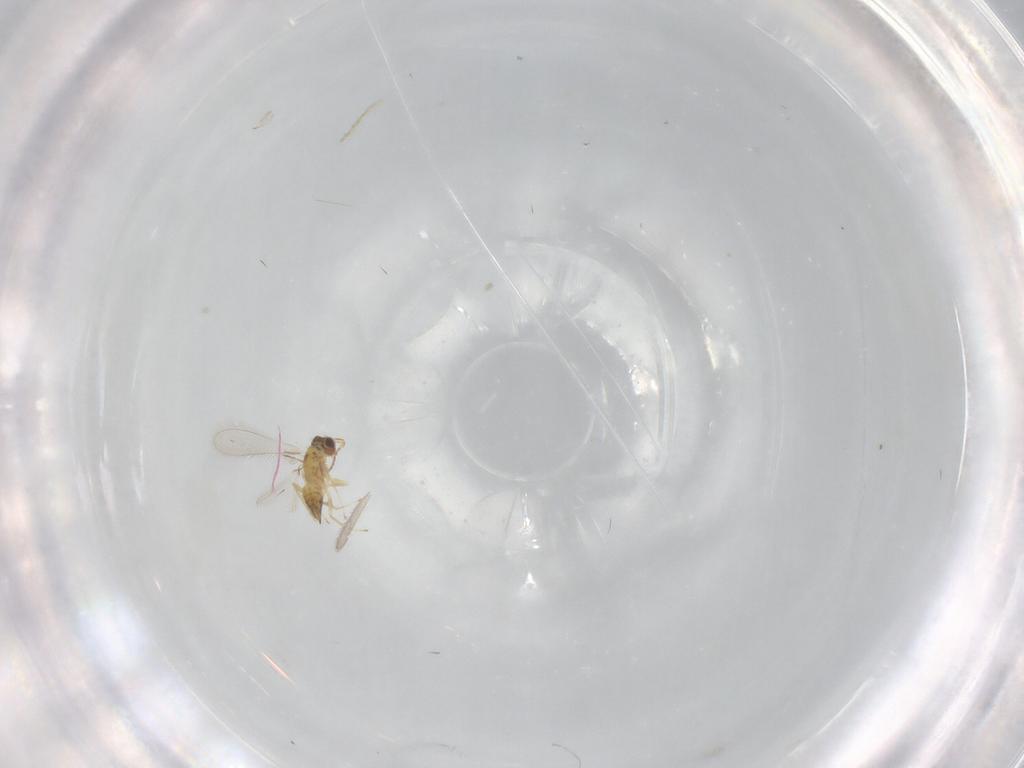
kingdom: Animalia
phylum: Arthropoda
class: Insecta
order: Hymenoptera
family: Mymaridae
